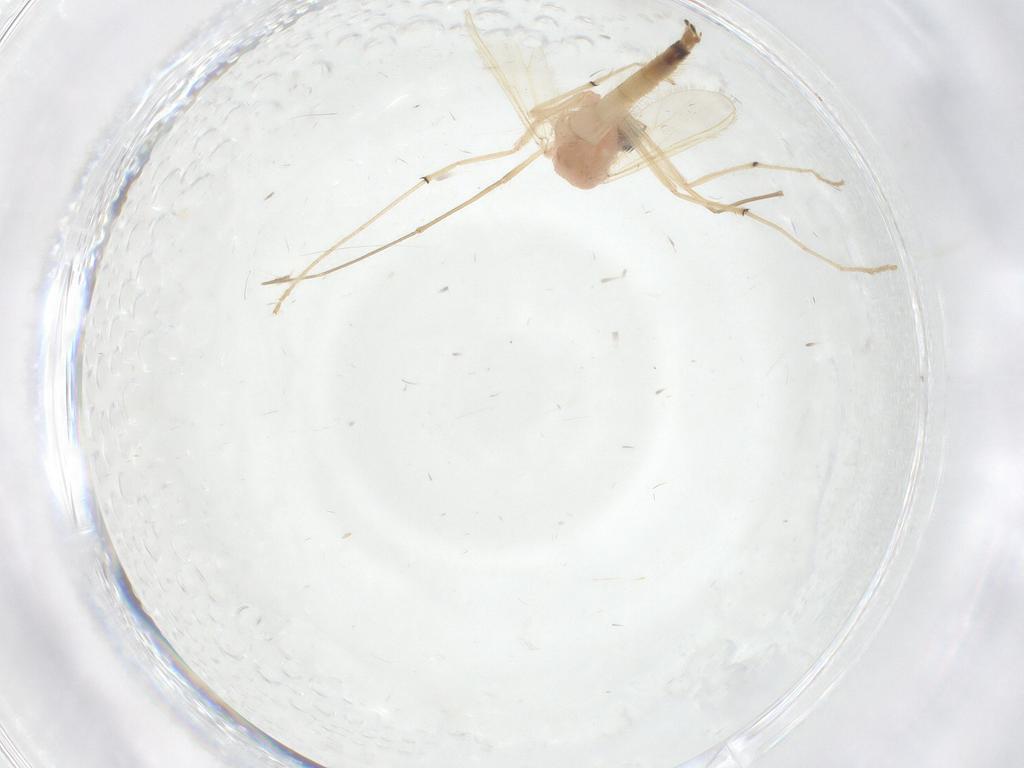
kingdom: Animalia
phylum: Arthropoda
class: Insecta
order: Diptera
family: Chironomidae
